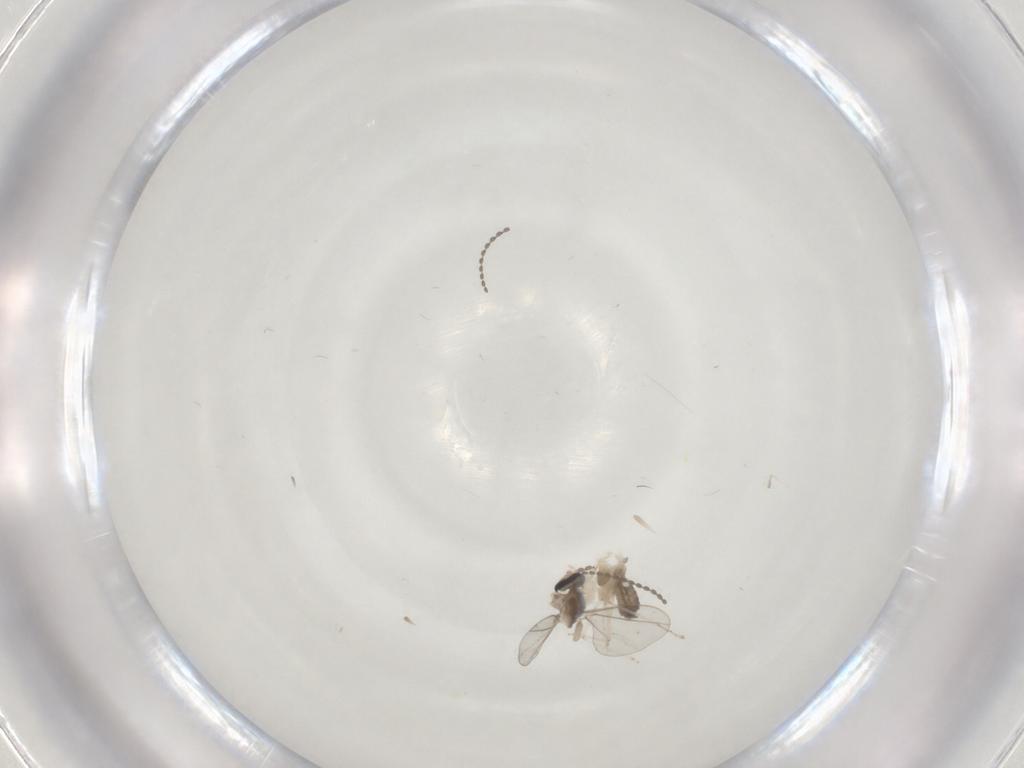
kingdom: Animalia
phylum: Arthropoda
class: Insecta
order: Diptera
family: Cecidomyiidae
